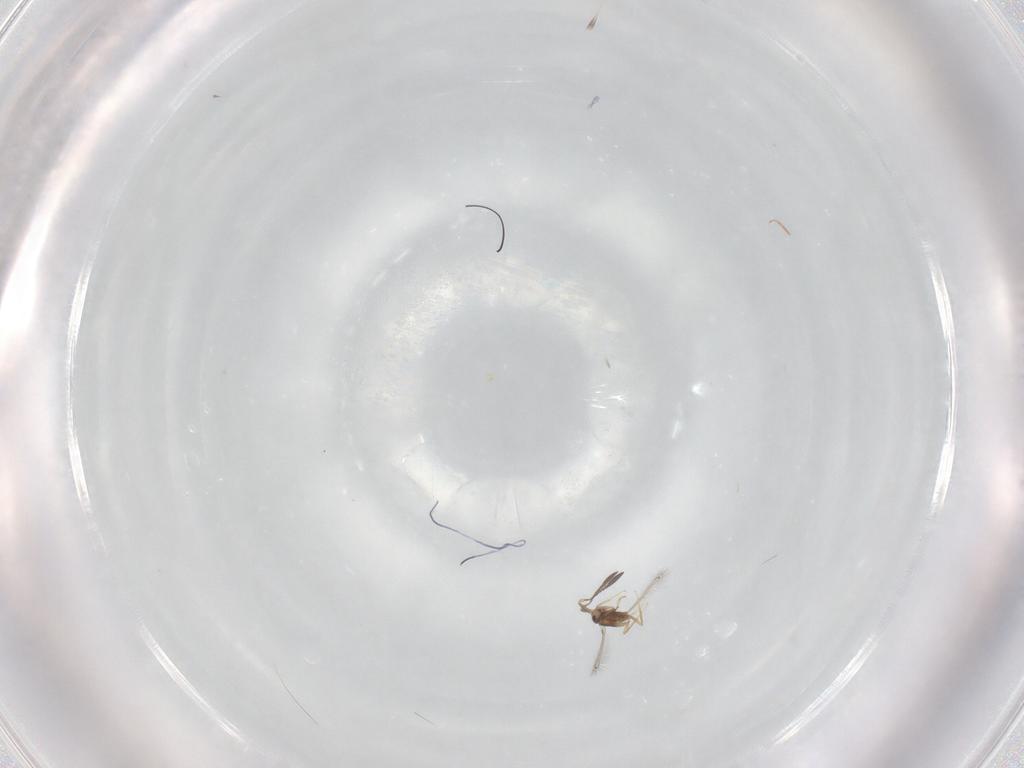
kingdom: Animalia
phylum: Arthropoda
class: Insecta
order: Hymenoptera
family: Mymaridae
